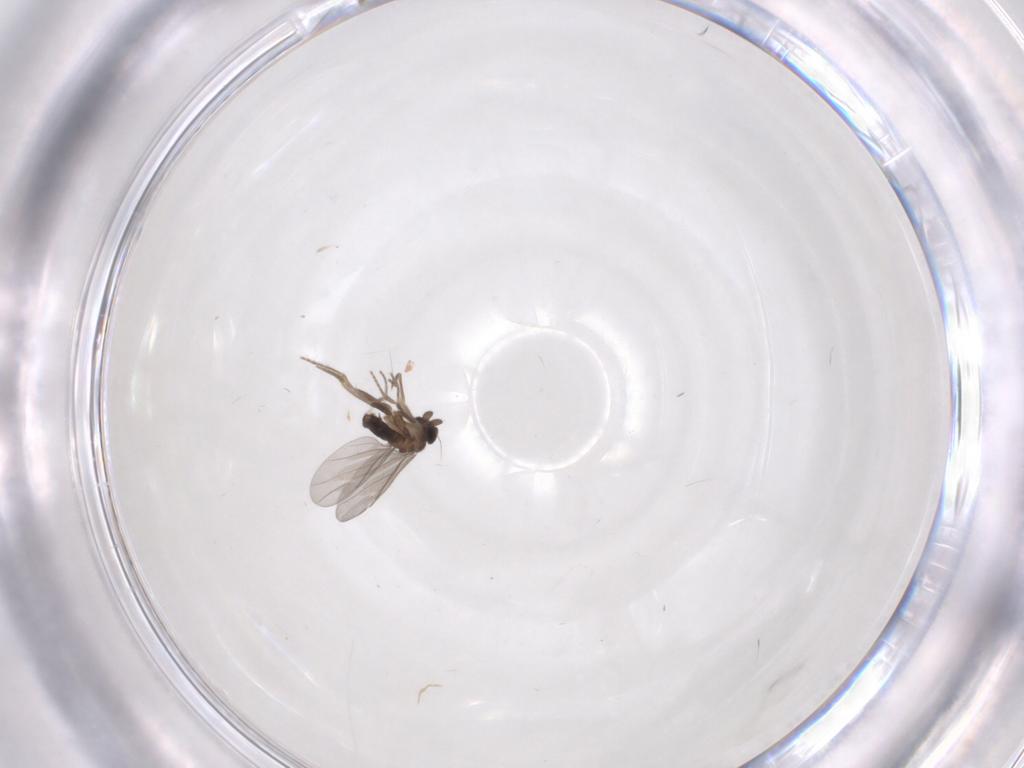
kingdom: Animalia
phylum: Arthropoda
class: Insecta
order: Diptera
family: Phoridae
